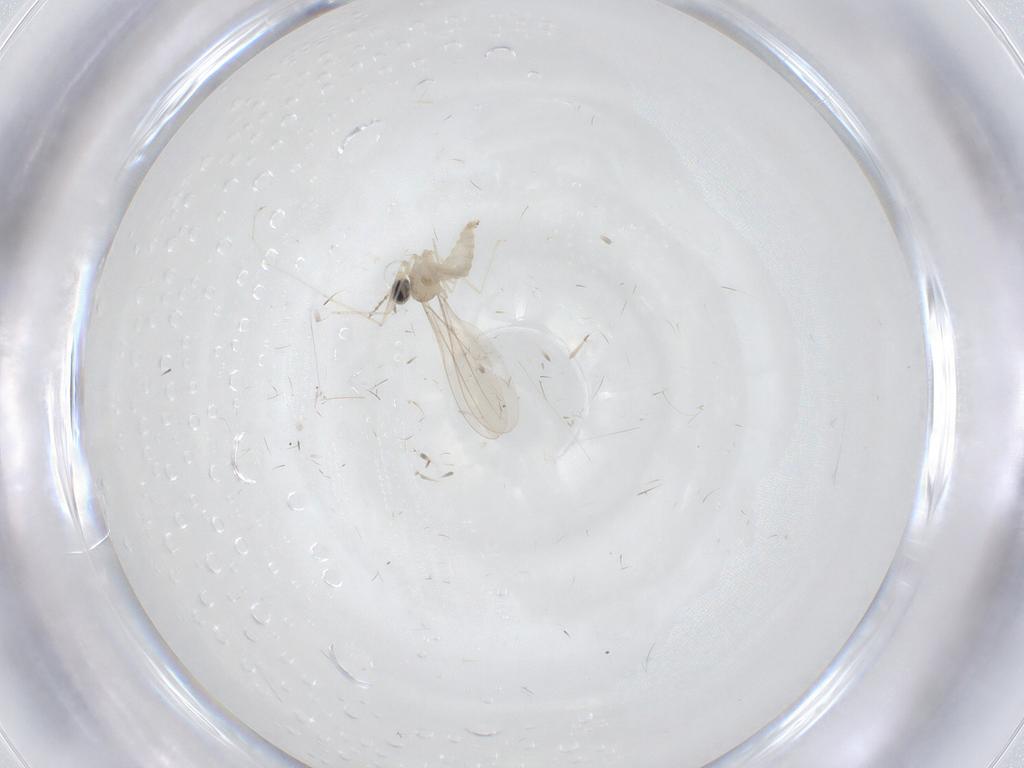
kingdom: Animalia
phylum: Arthropoda
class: Insecta
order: Diptera
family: Cecidomyiidae
